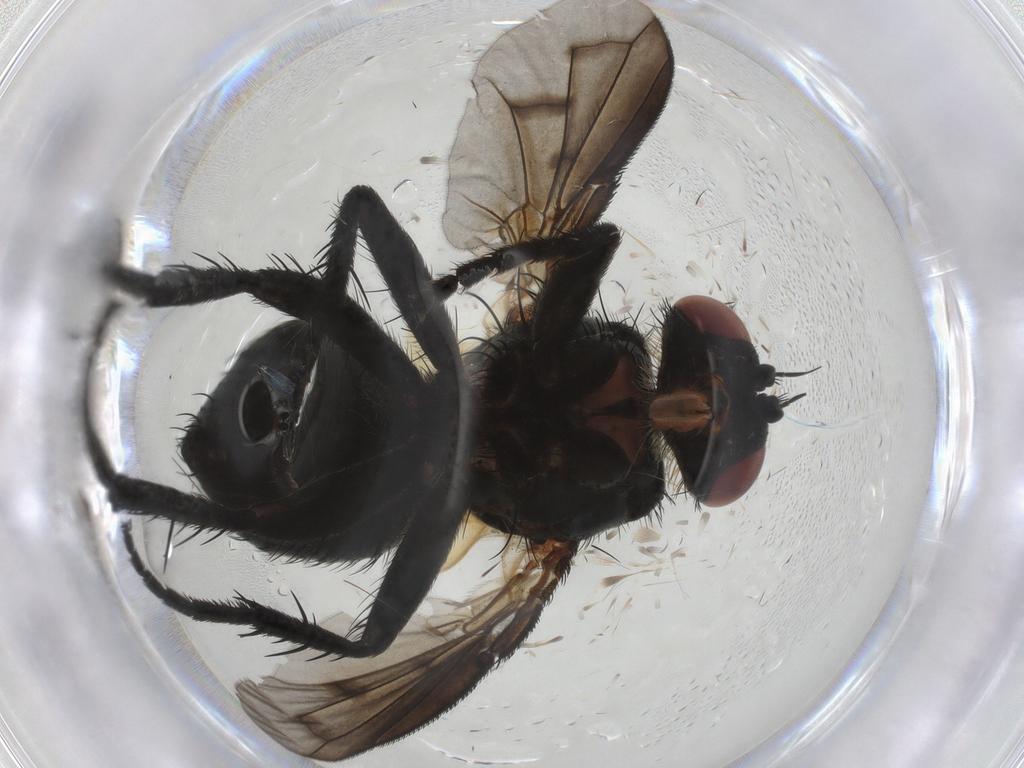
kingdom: Animalia
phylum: Arthropoda
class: Insecta
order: Diptera
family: Tachinidae
